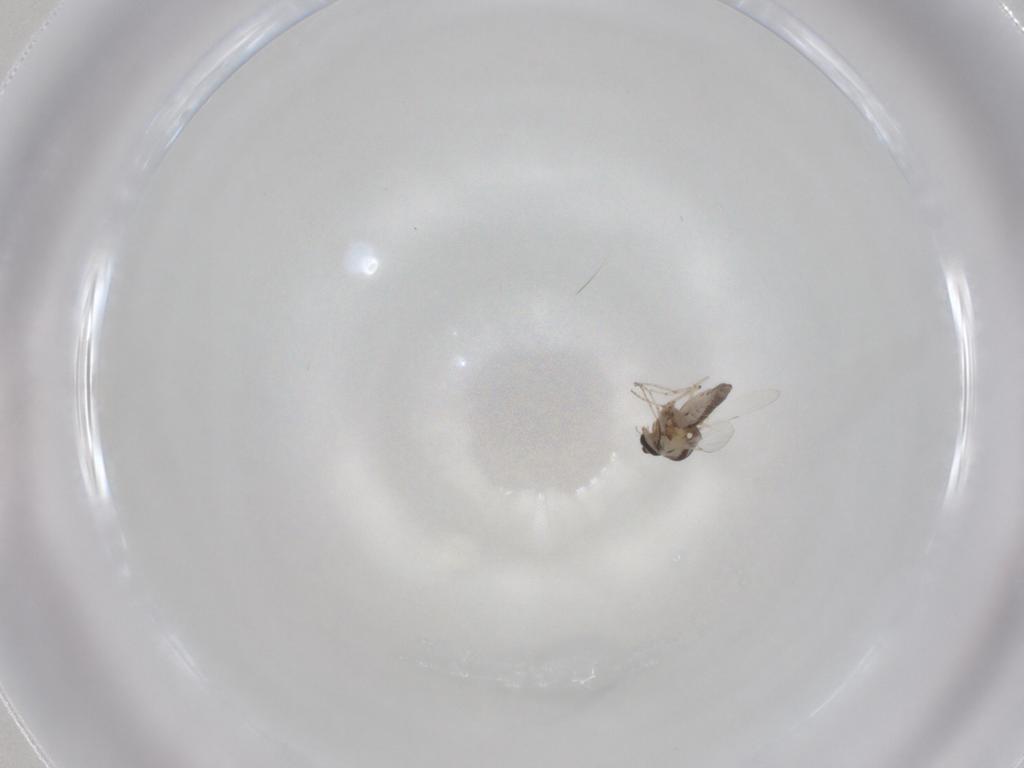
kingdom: Animalia
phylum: Arthropoda
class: Insecta
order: Diptera
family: Ceratopogonidae
